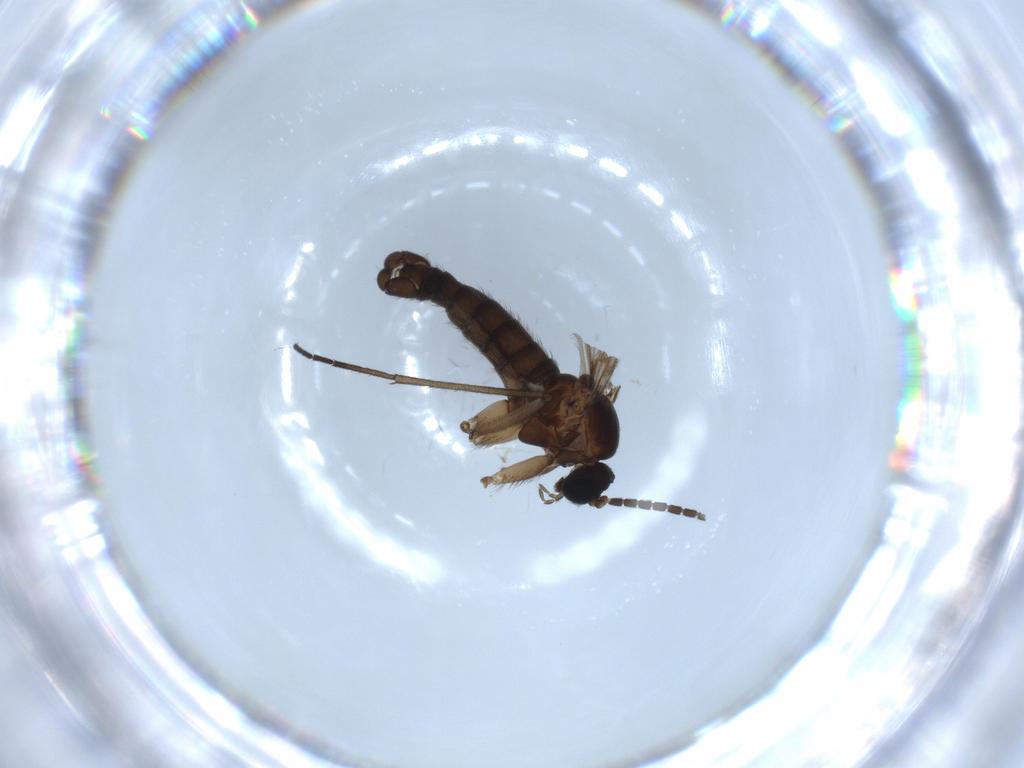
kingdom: Animalia
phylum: Arthropoda
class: Insecta
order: Diptera
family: Sciaridae
